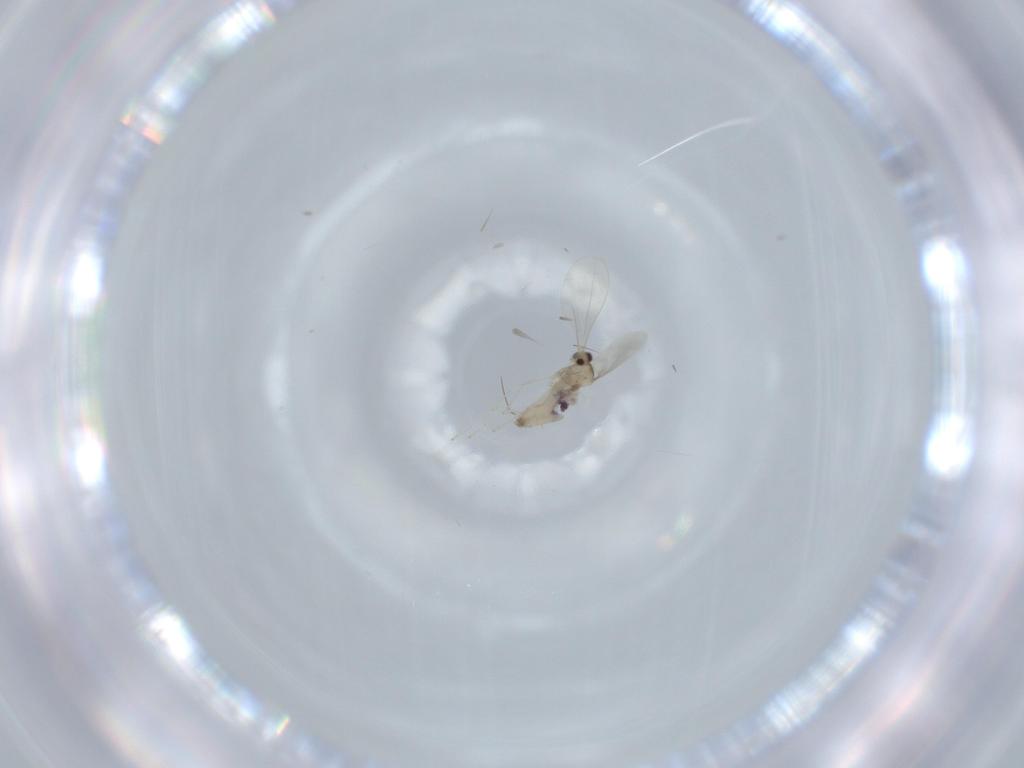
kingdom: Animalia
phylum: Arthropoda
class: Insecta
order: Diptera
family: Cecidomyiidae
